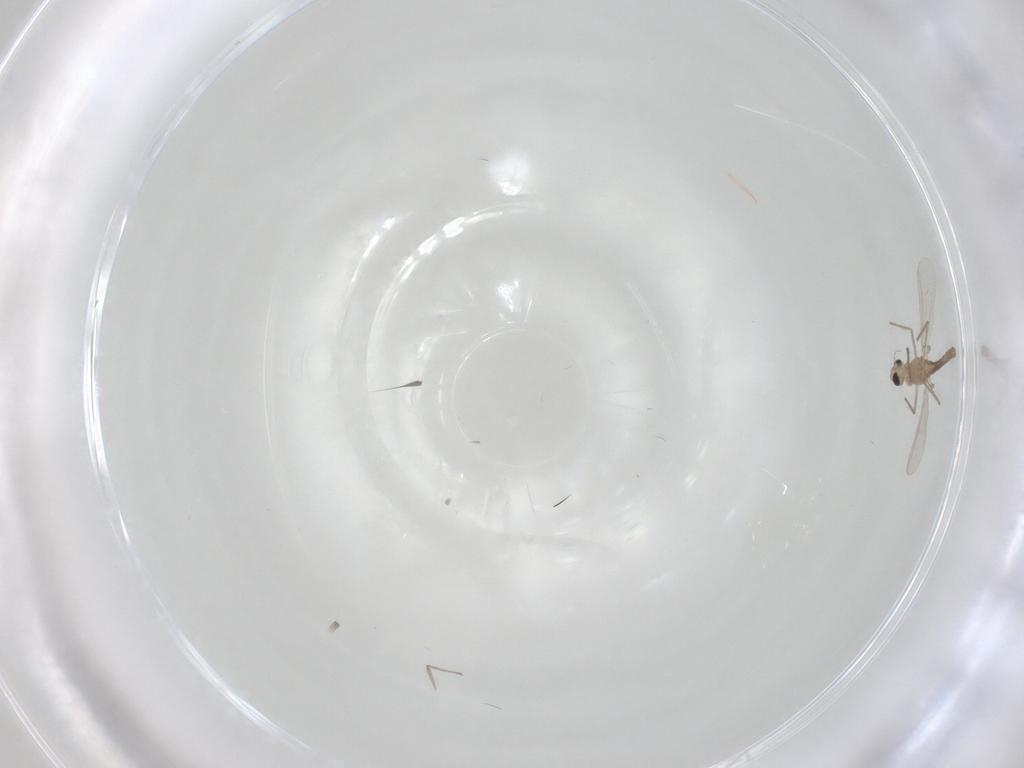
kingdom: Animalia
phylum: Arthropoda
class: Insecta
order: Diptera
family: Chironomidae
